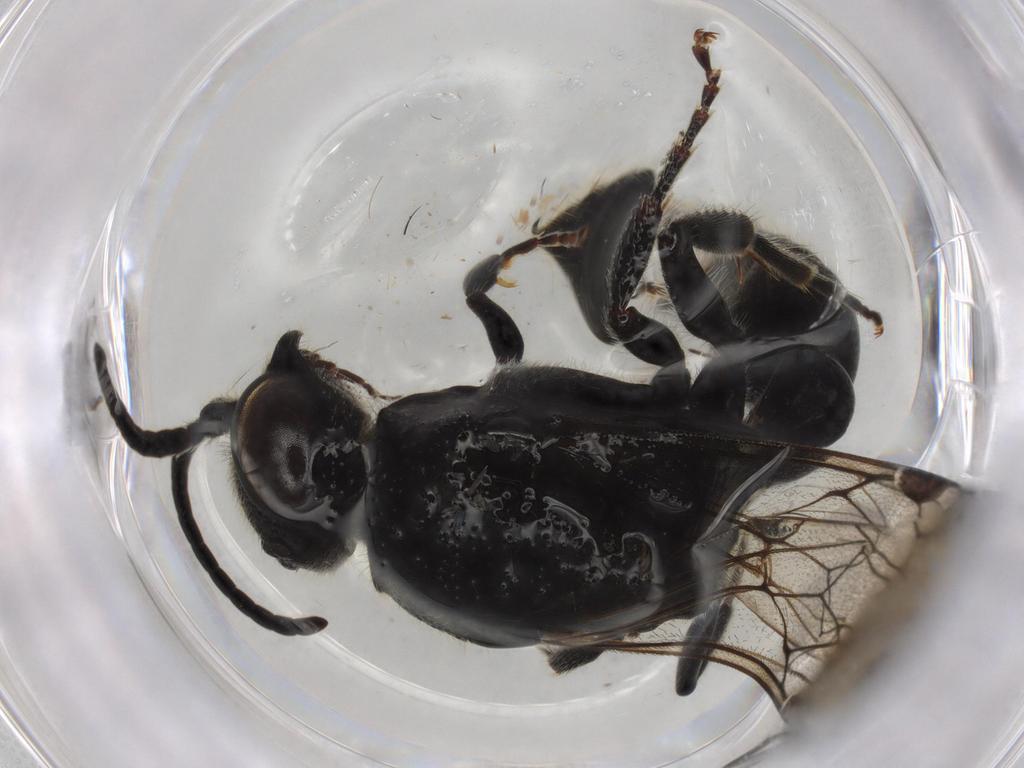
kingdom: Animalia
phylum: Arthropoda
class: Insecta
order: Hymenoptera
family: Tiphiidae
